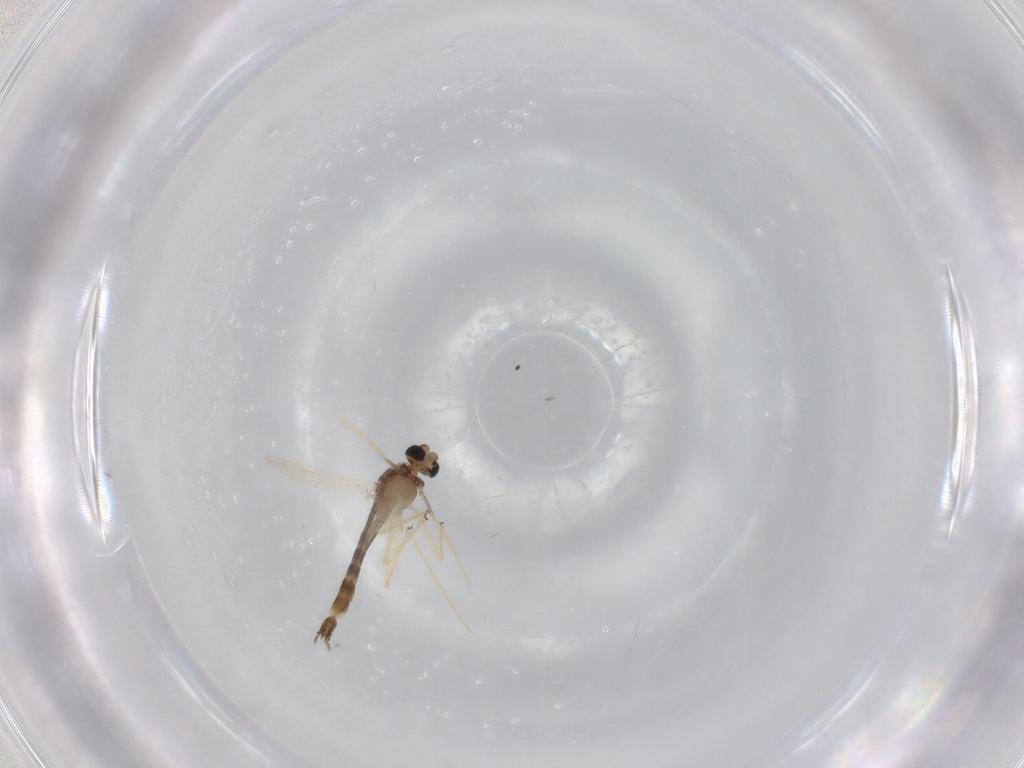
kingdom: Animalia
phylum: Arthropoda
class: Insecta
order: Diptera
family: Chironomidae
